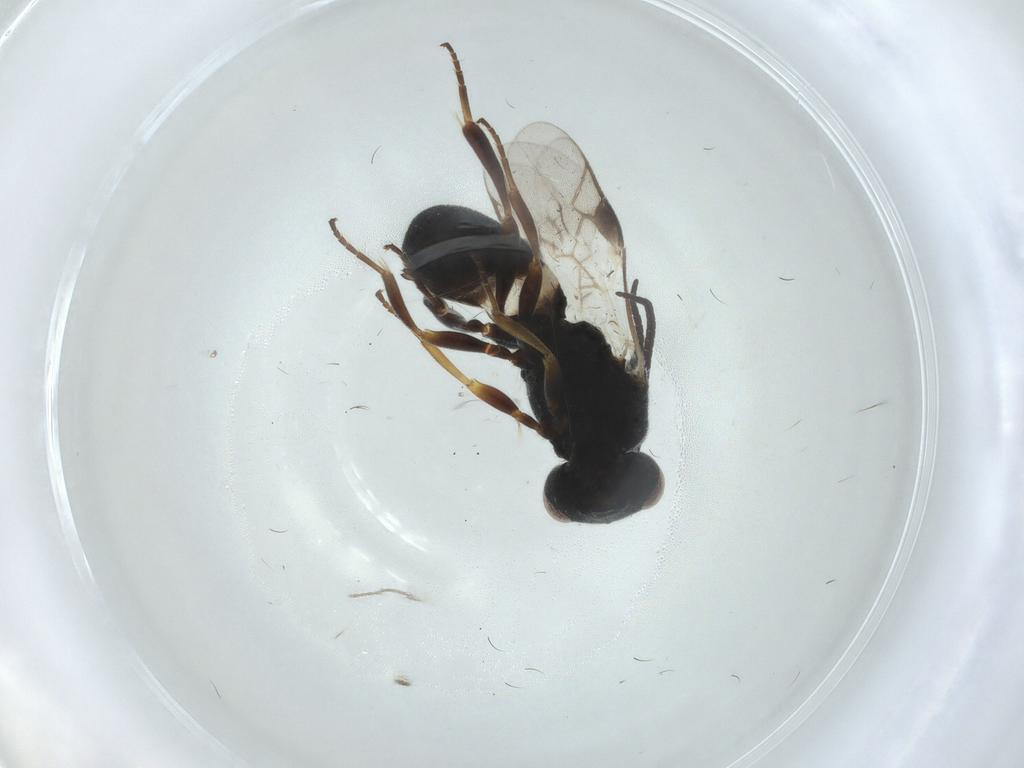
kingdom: Animalia
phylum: Arthropoda
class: Insecta
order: Hymenoptera
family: Braconidae
